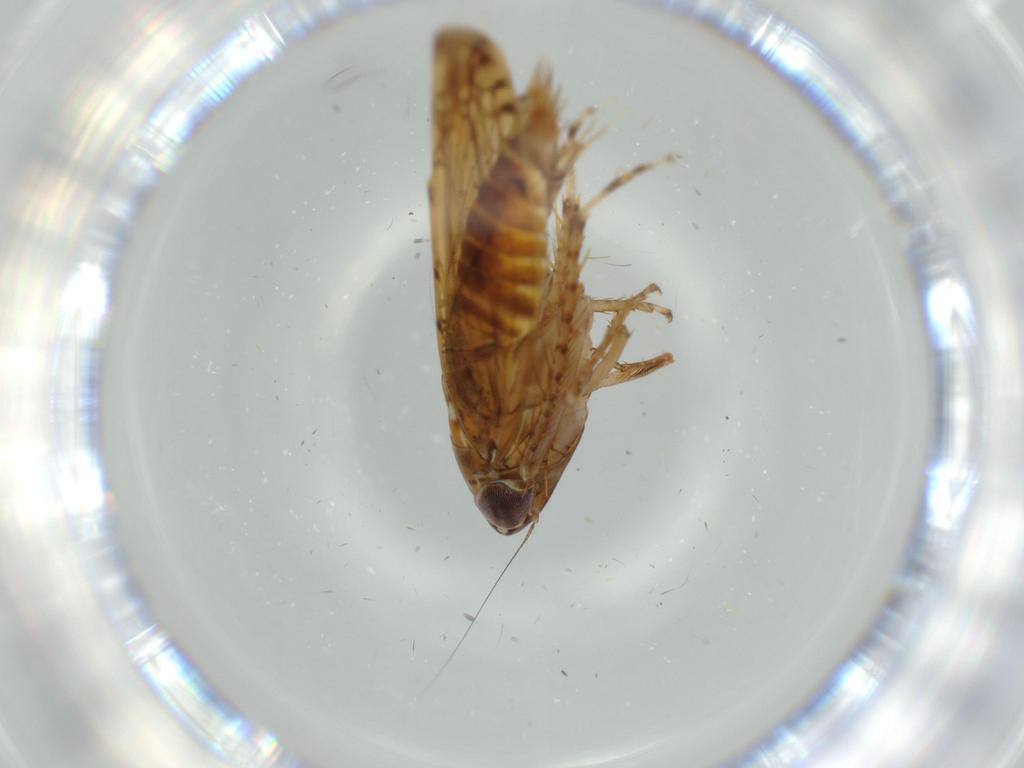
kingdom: Animalia
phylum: Arthropoda
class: Insecta
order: Hemiptera
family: Cicadellidae
